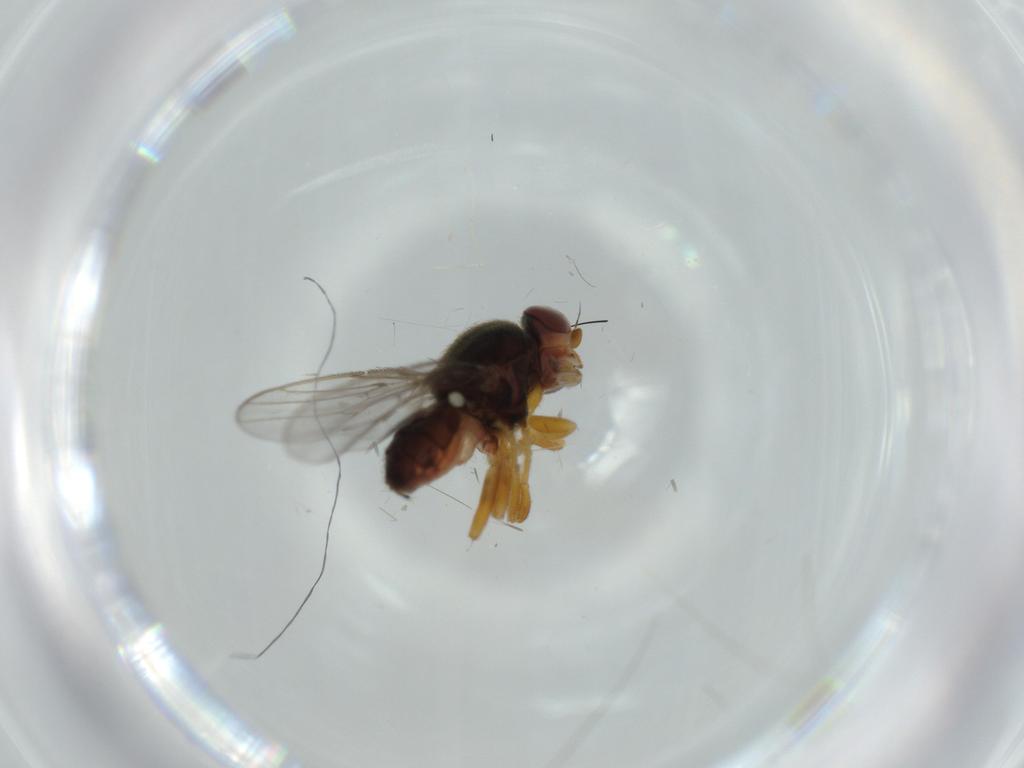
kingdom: Animalia
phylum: Arthropoda
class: Insecta
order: Diptera
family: Chloropidae
